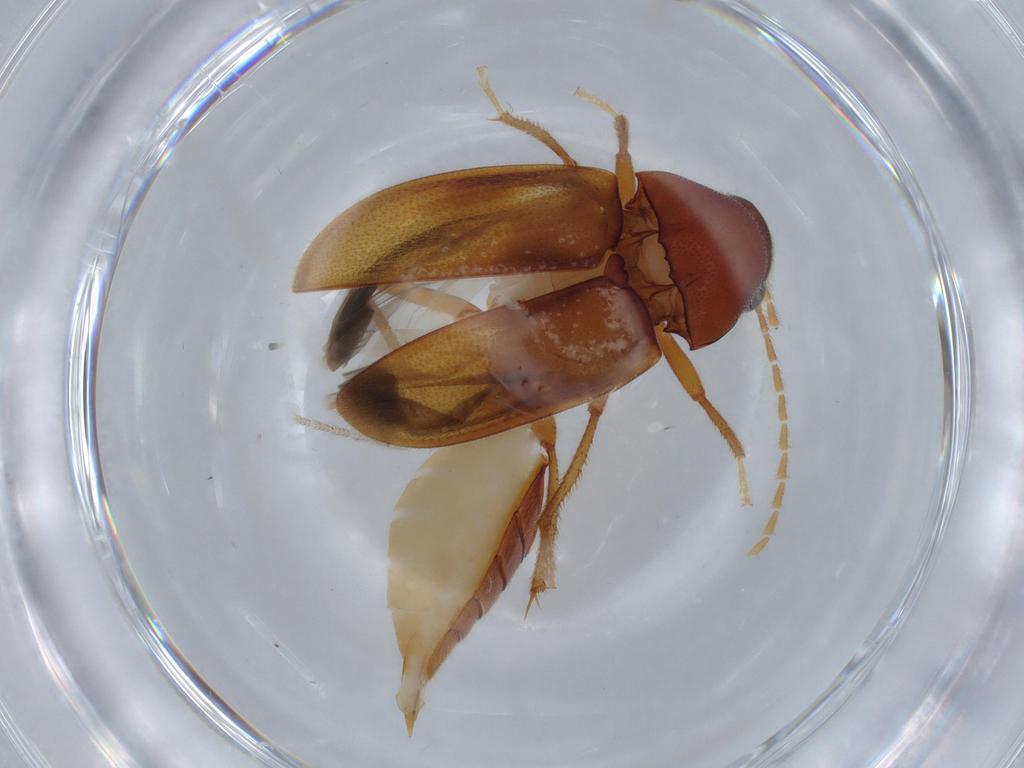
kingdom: Animalia
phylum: Arthropoda
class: Insecta
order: Coleoptera
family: Ptilodactylidae
